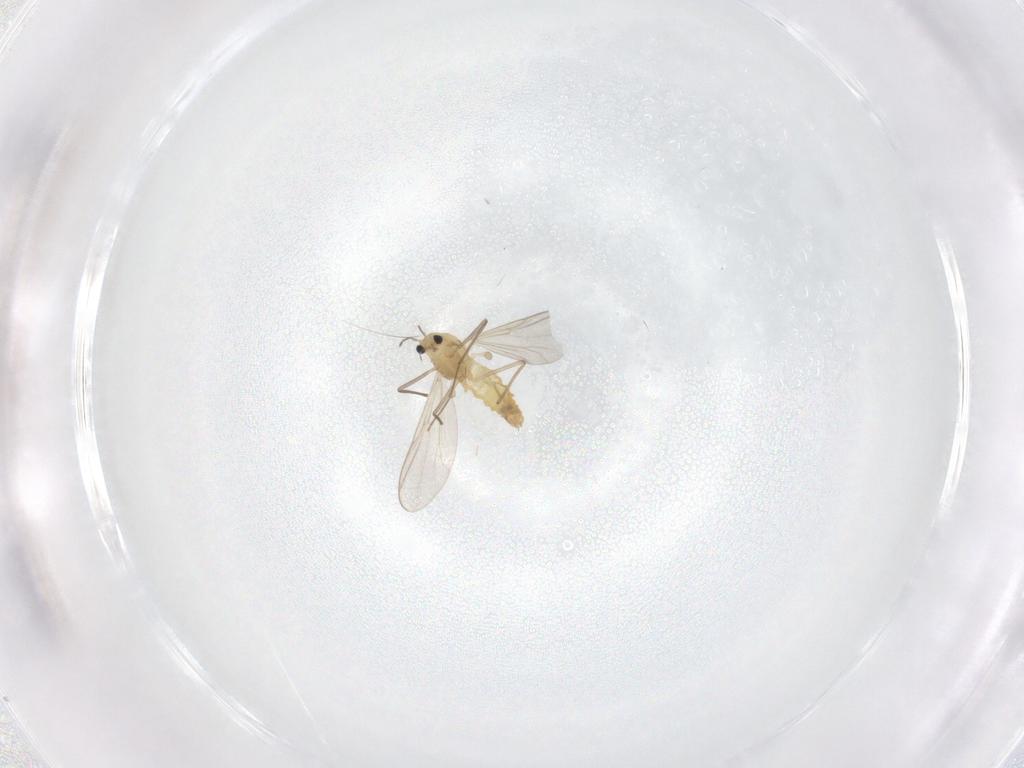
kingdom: Animalia
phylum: Arthropoda
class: Insecta
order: Diptera
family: Chironomidae
